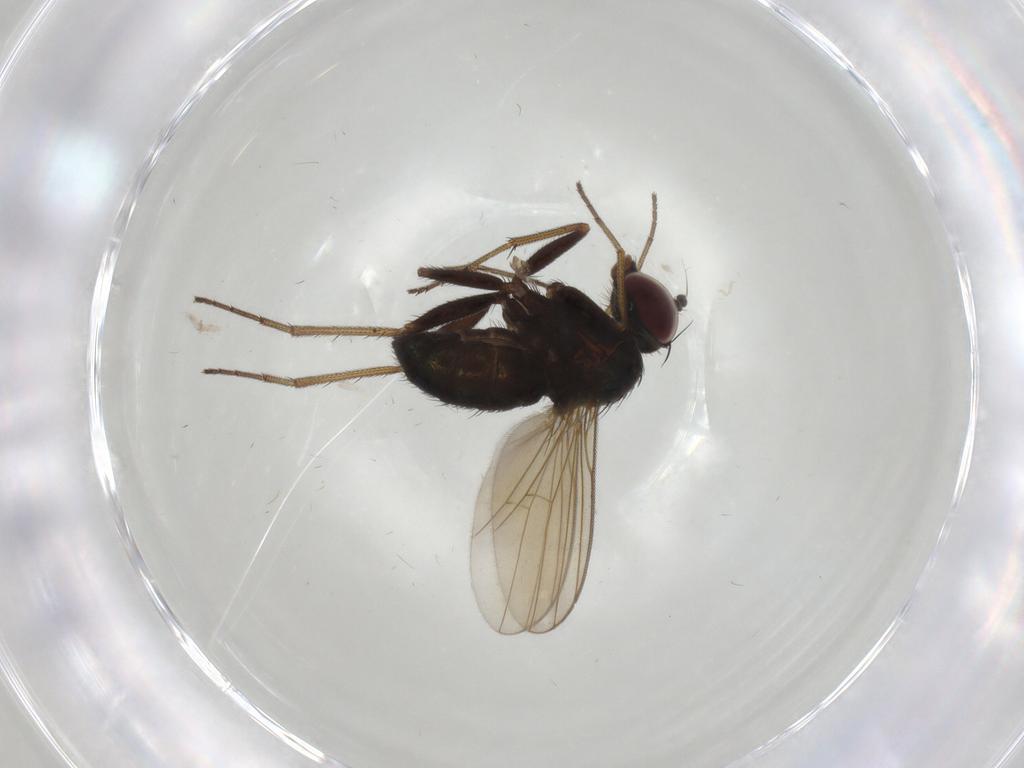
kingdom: Animalia
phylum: Arthropoda
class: Insecta
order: Diptera
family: Dolichopodidae
